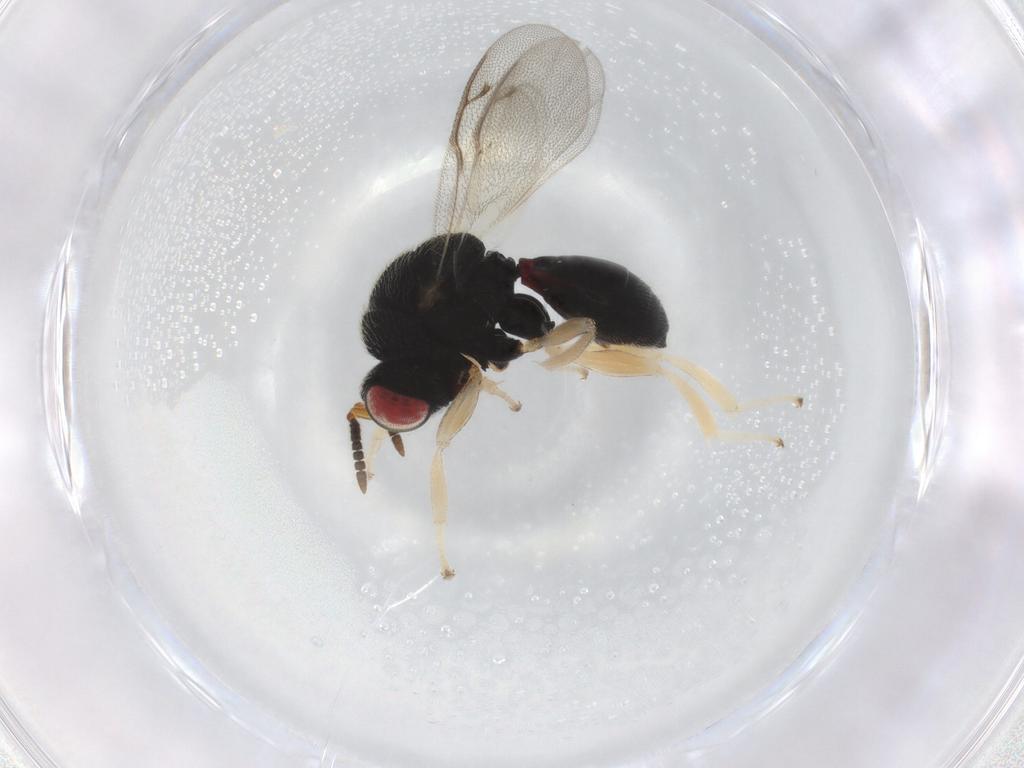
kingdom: Animalia
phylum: Arthropoda
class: Insecta
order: Hymenoptera
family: Eurytomidae
